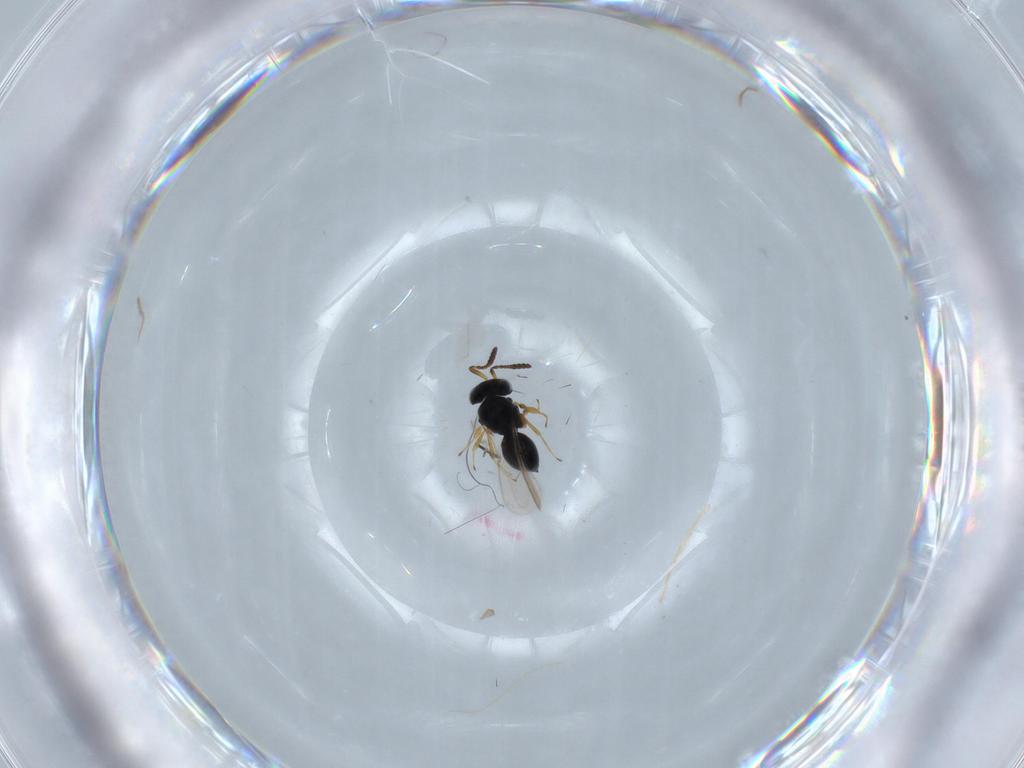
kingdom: Animalia
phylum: Arthropoda
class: Insecta
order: Hymenoptera
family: Scelionidae
